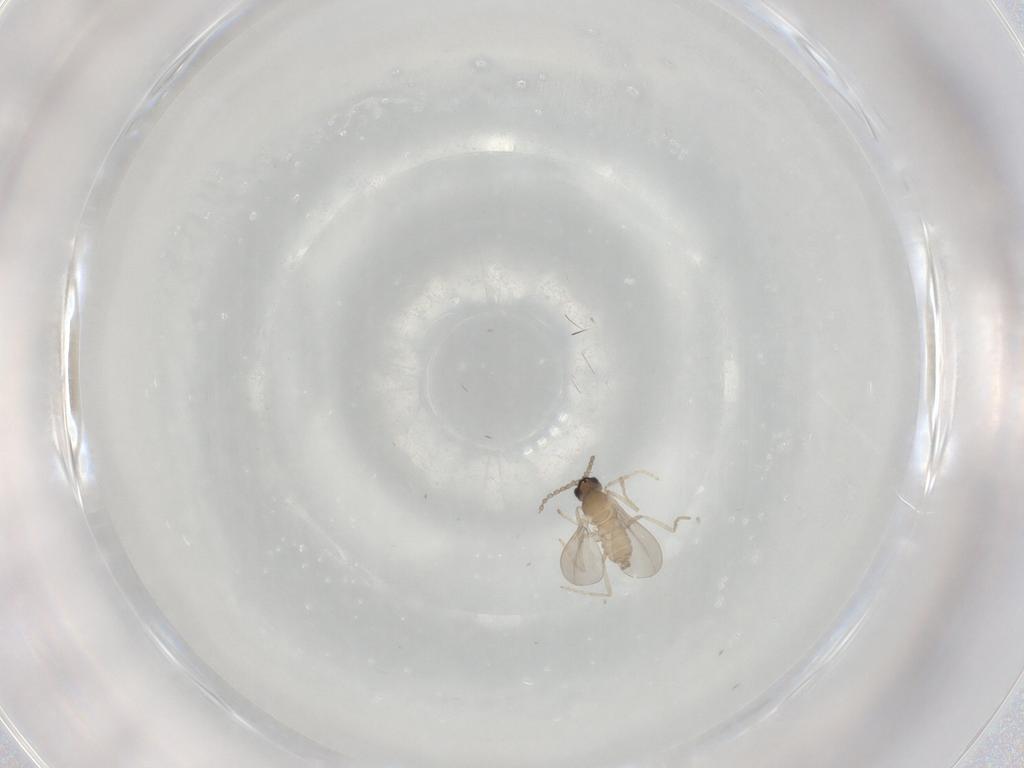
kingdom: Animalia
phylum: Arthropoda
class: Insecta
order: Diptera
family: Cecidomyiidae
